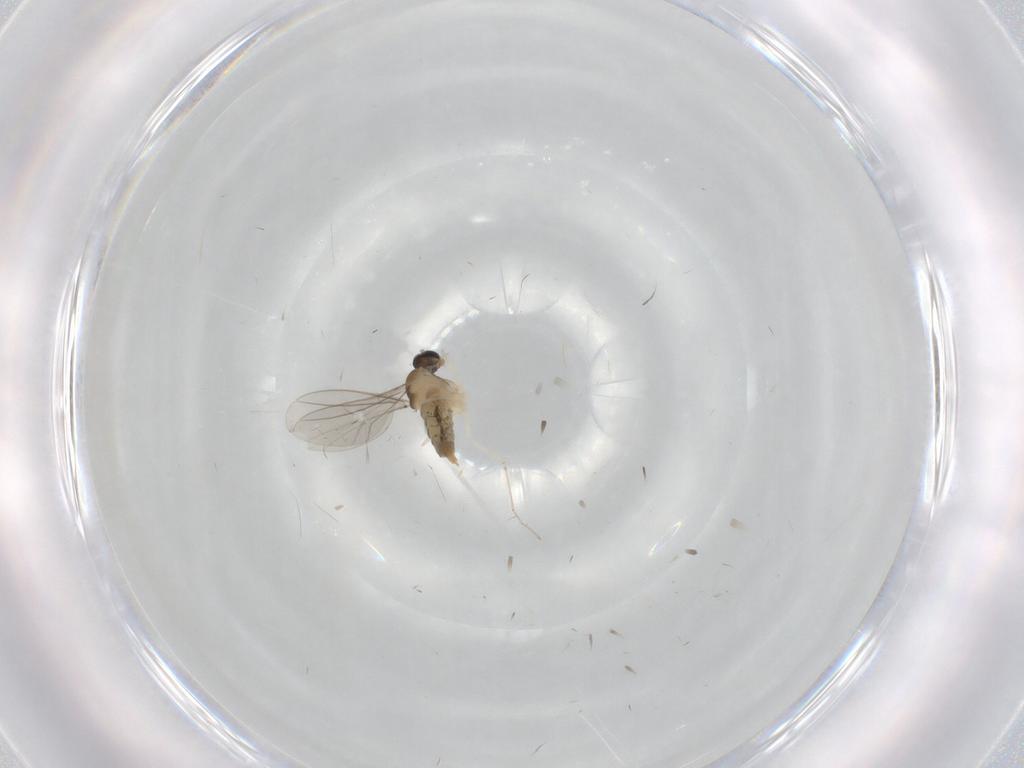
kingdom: Animalia
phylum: Arthropoda
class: Insecta
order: Diptera
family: Cecidomyiidae
